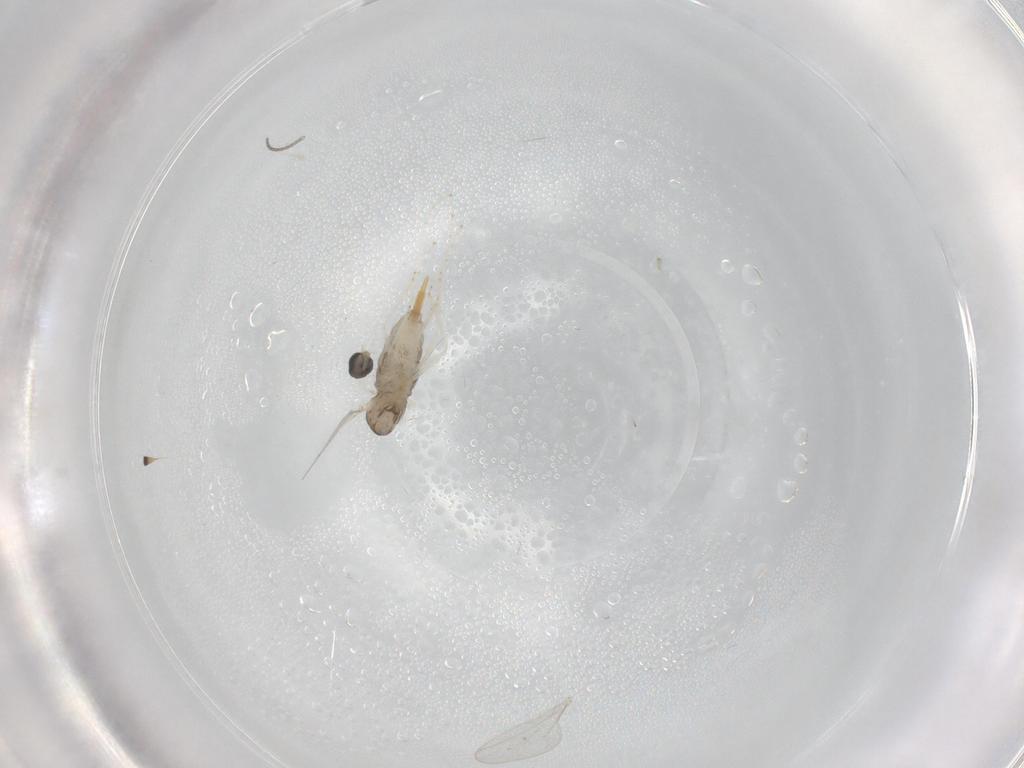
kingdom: Animalia
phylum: Arthropoda
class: Insecta
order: Diptera
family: Cecidomyiidae
